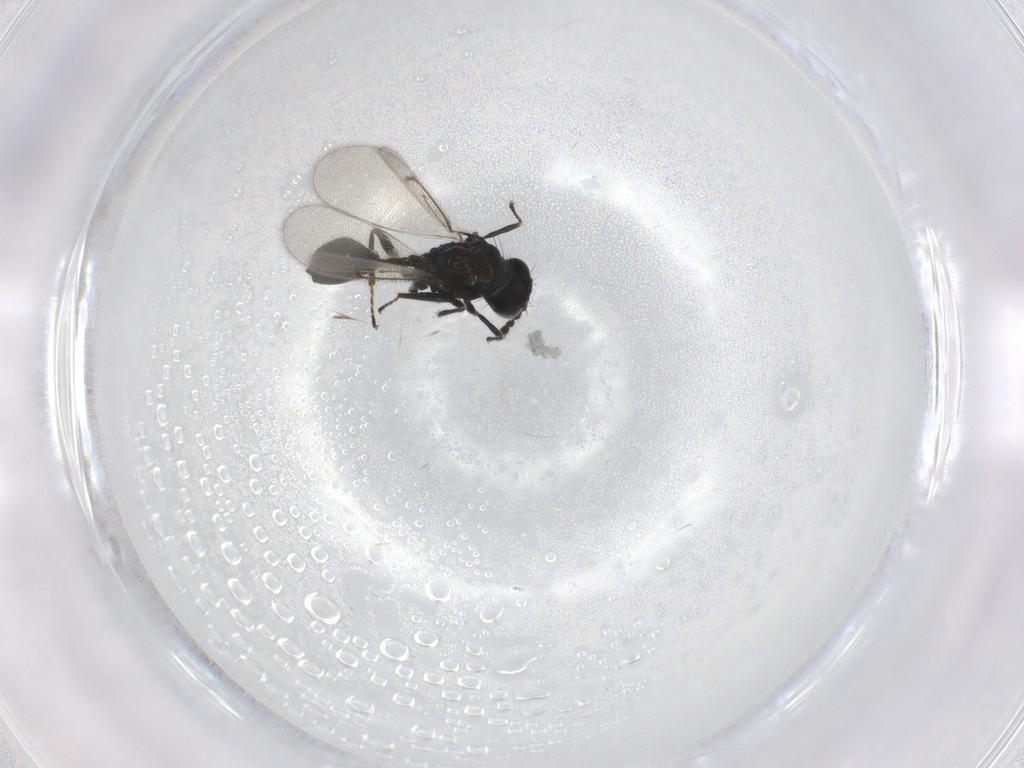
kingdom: Animalia
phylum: Arthropoda
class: Insecta
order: Hymenoptera
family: Eulophidae
